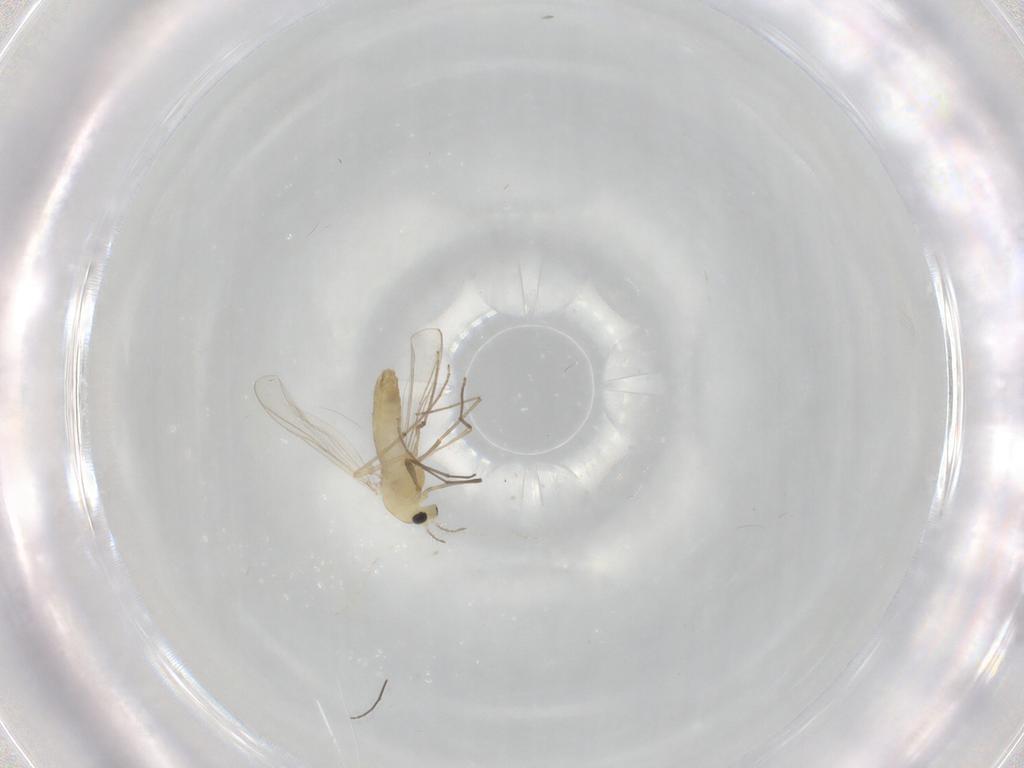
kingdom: Animalia
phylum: Arthropoda
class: Insecta
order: Diptera
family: Chironomidae
